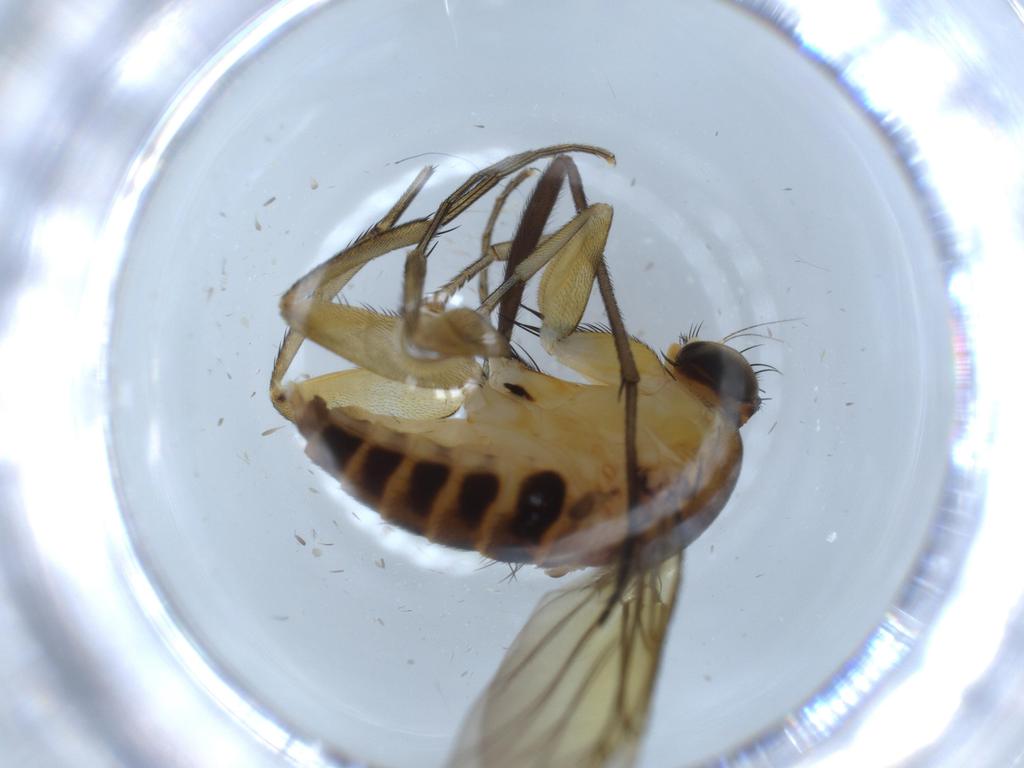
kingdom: Animalia
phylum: Arthropoda
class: Insecta
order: Diptera
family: Sciaridae
